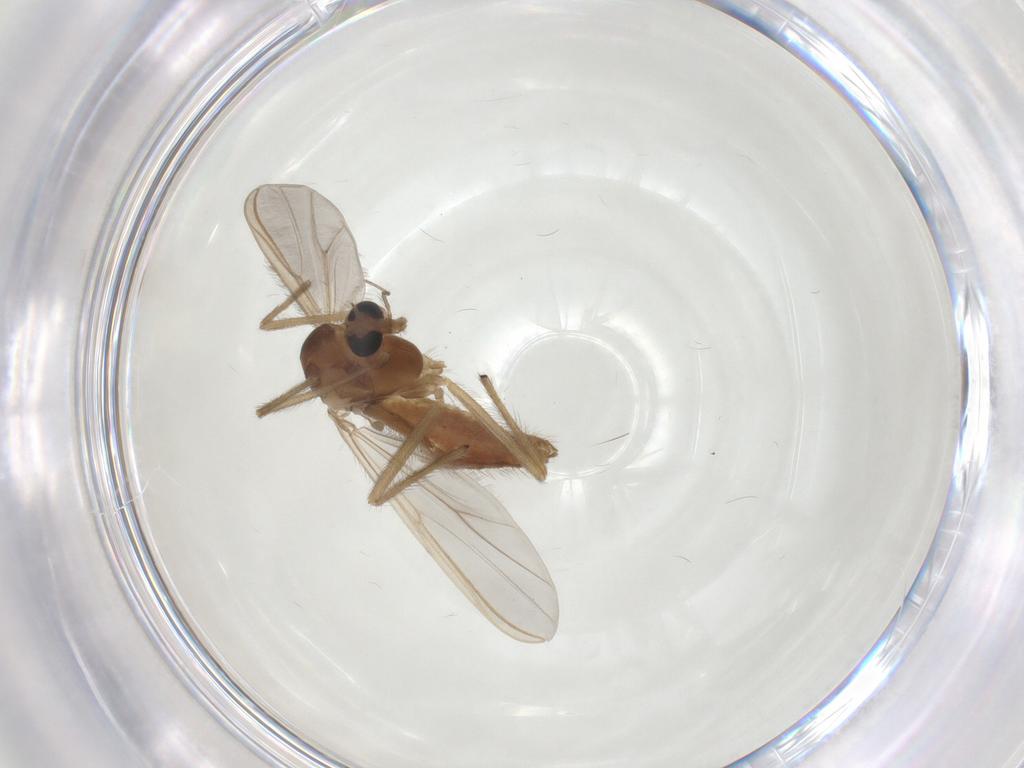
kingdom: Animalia
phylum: Arthropoda
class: Insecta
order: Diptera
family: Chironomidae
